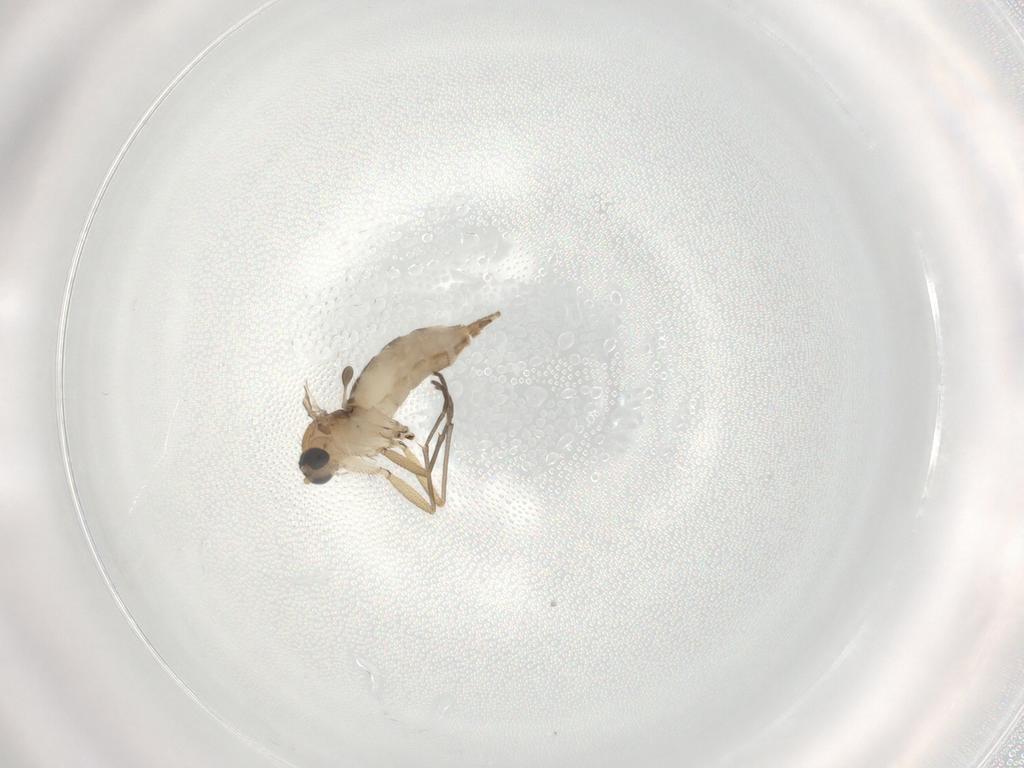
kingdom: Animalia
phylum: Arthropoda
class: Insecta
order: Diptera
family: Sciaridae
